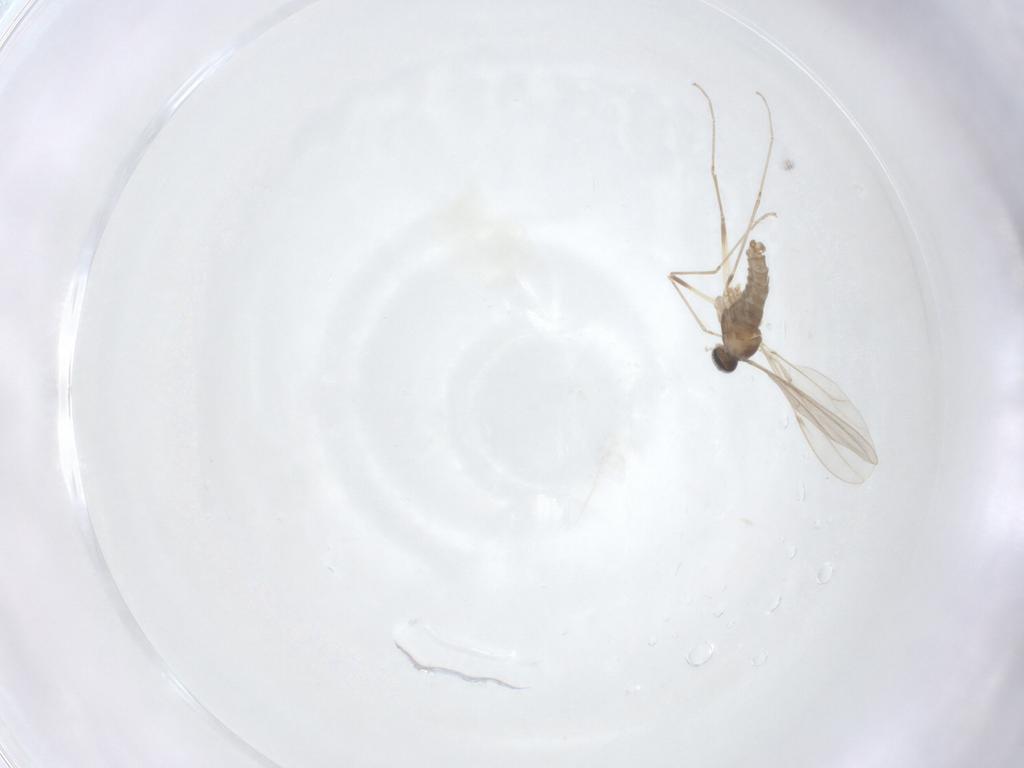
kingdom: Animalia
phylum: Arthropoda
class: Insecta
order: Diptera
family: Cecidomyiidae
